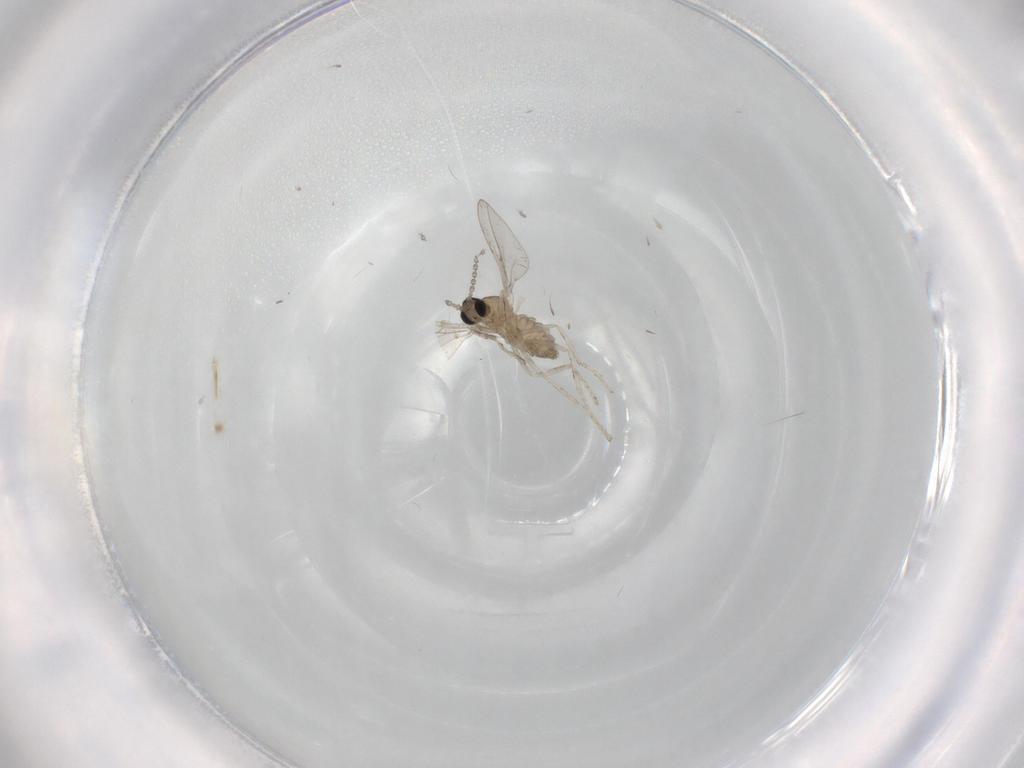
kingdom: Animalia
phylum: Arthropoda
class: Insecta
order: Diptera
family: Cecidomyiidae
